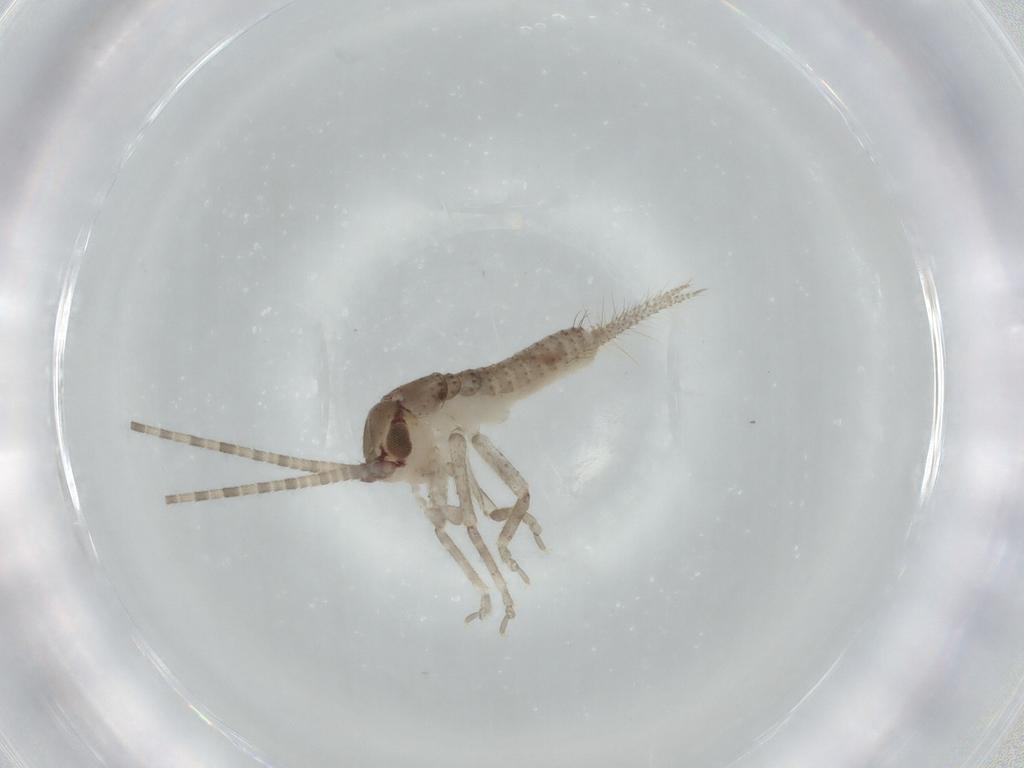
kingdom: Animalia
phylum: Arthropoda
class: Insecta
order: Orthoptera
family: Gryllidae
